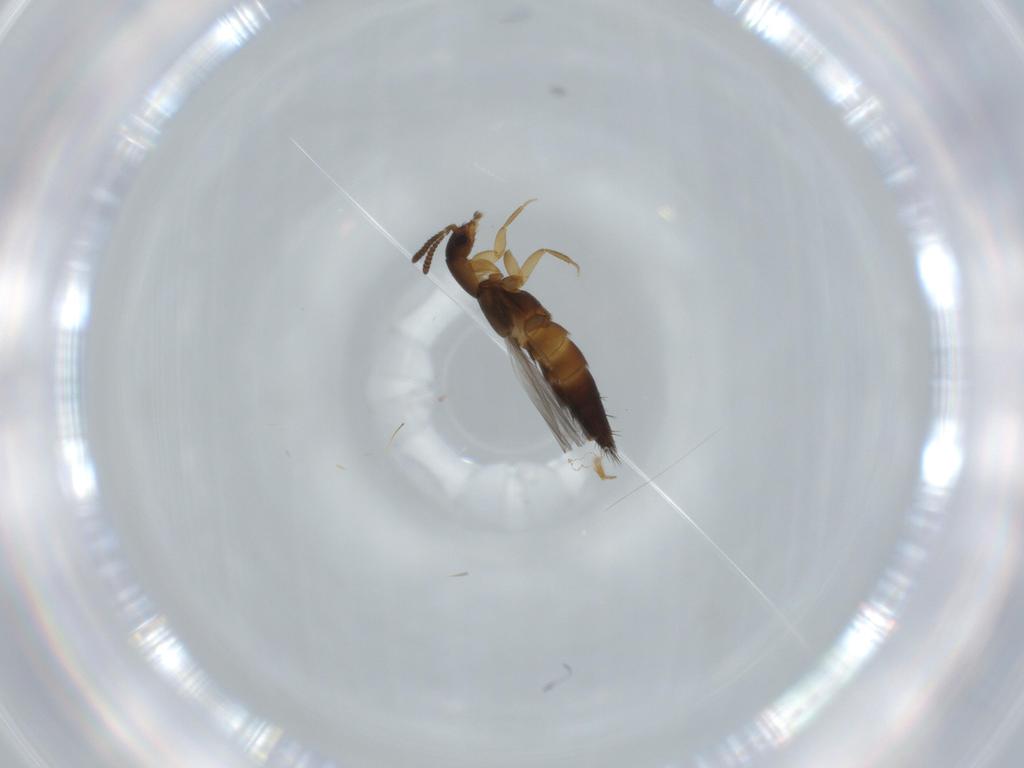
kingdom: Animalia
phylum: Arthropoda
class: Insecta
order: Coleoptera
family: Staphylinidae
